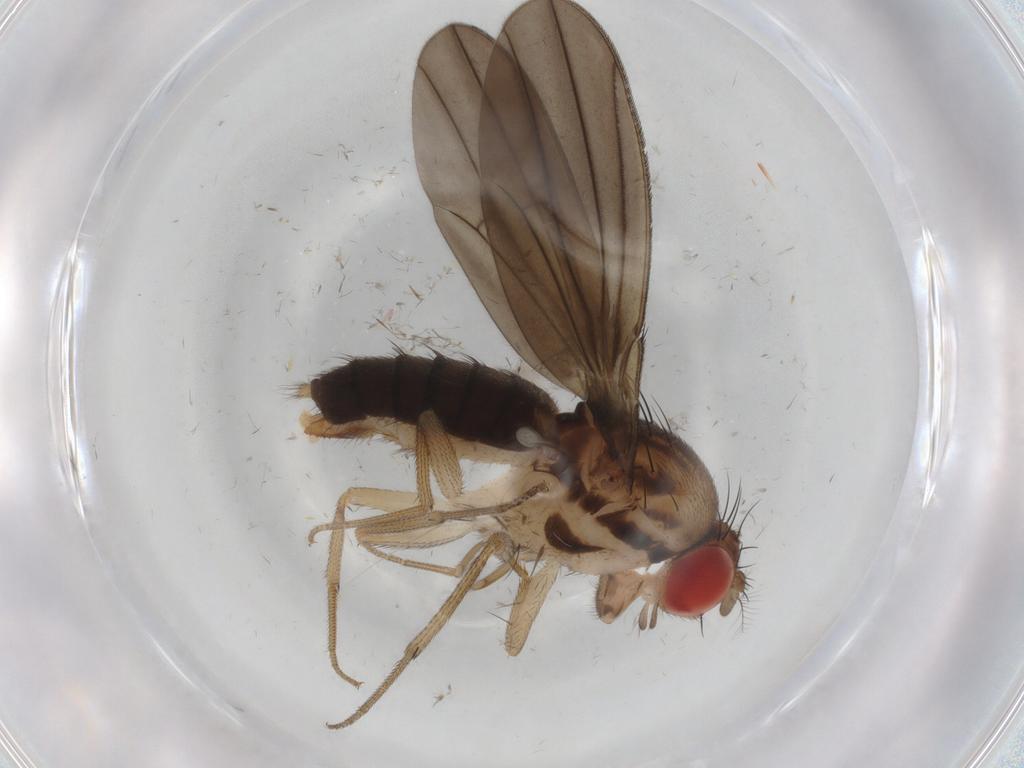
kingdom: Animalia
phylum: Arthropoda
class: Insecta
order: Diptera
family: Drosophilidae
